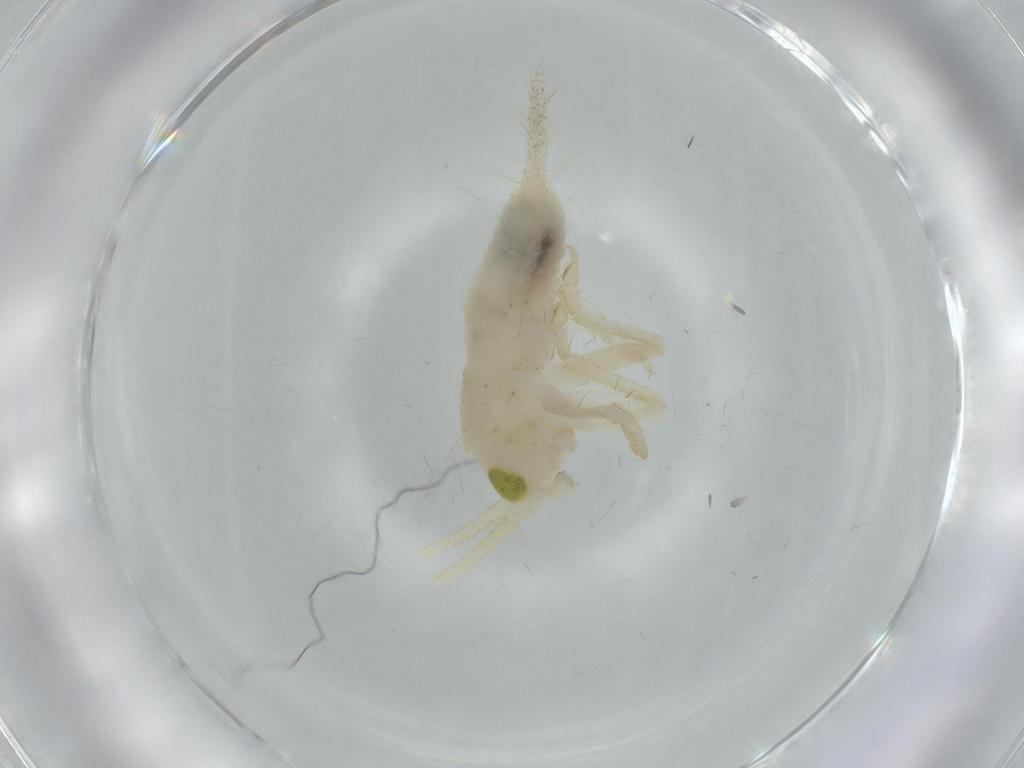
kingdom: Animalia
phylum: Arthropoda
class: Insecta
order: Orthoptera
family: Trigonidiidae
